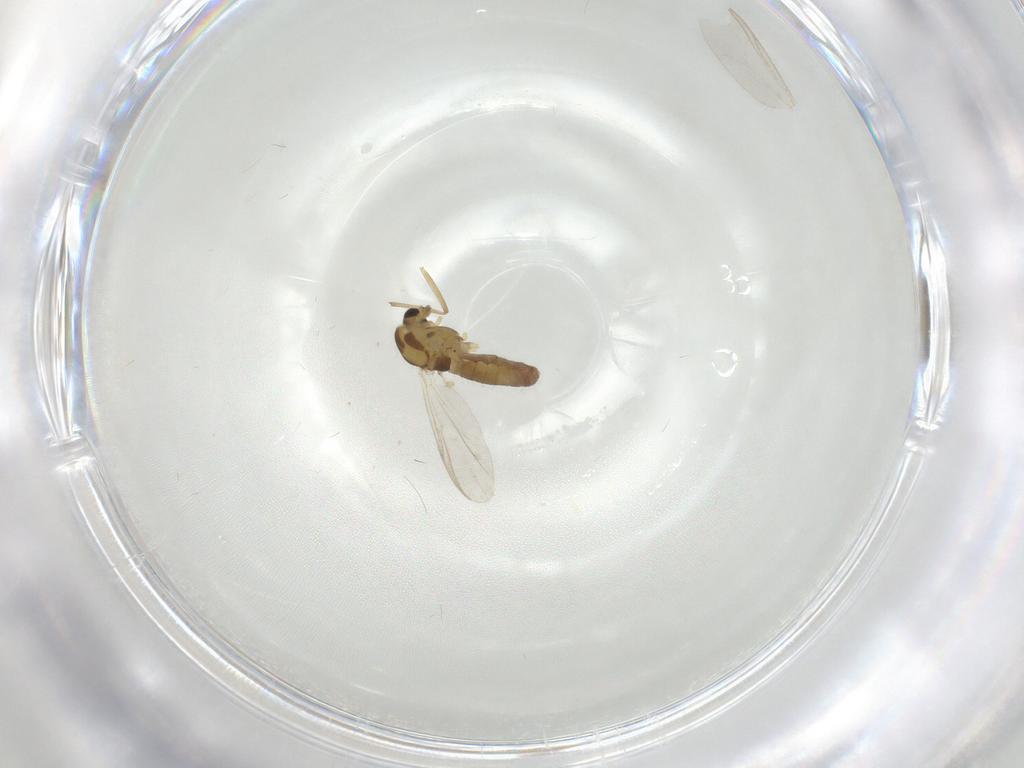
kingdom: Animalia
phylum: Arthropoda
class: Insecta
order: Diptera
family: Chironomidae
